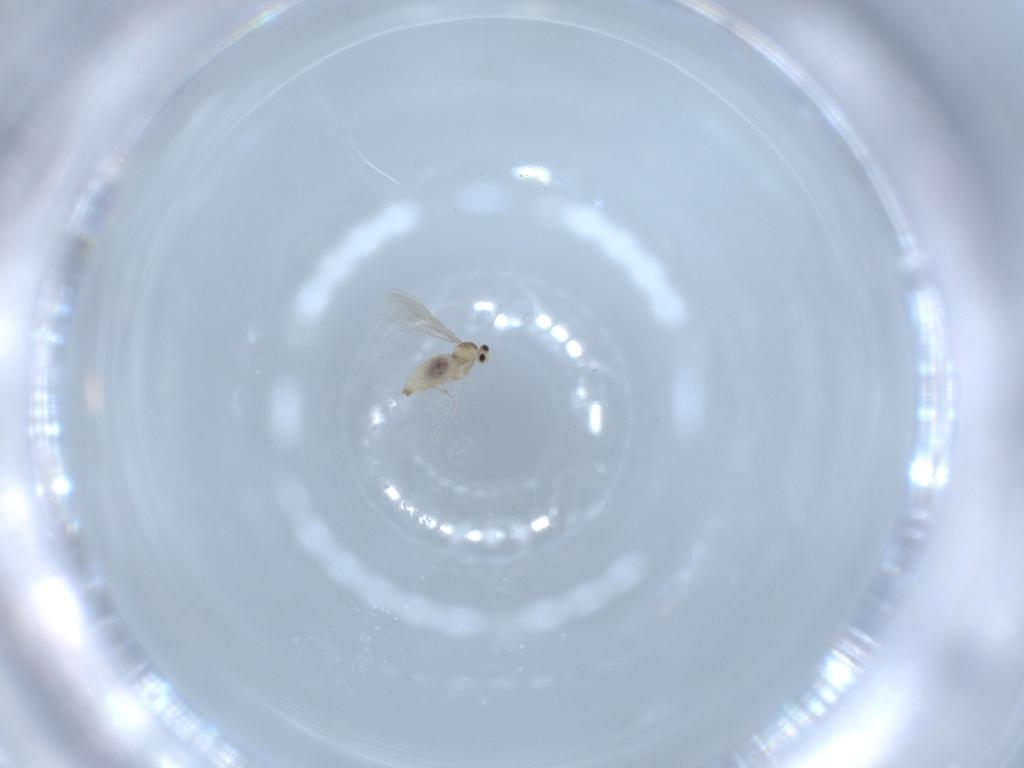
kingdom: Animalia
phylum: Arthropoda
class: Insecta
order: Diptera
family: Cecidomyiidae
